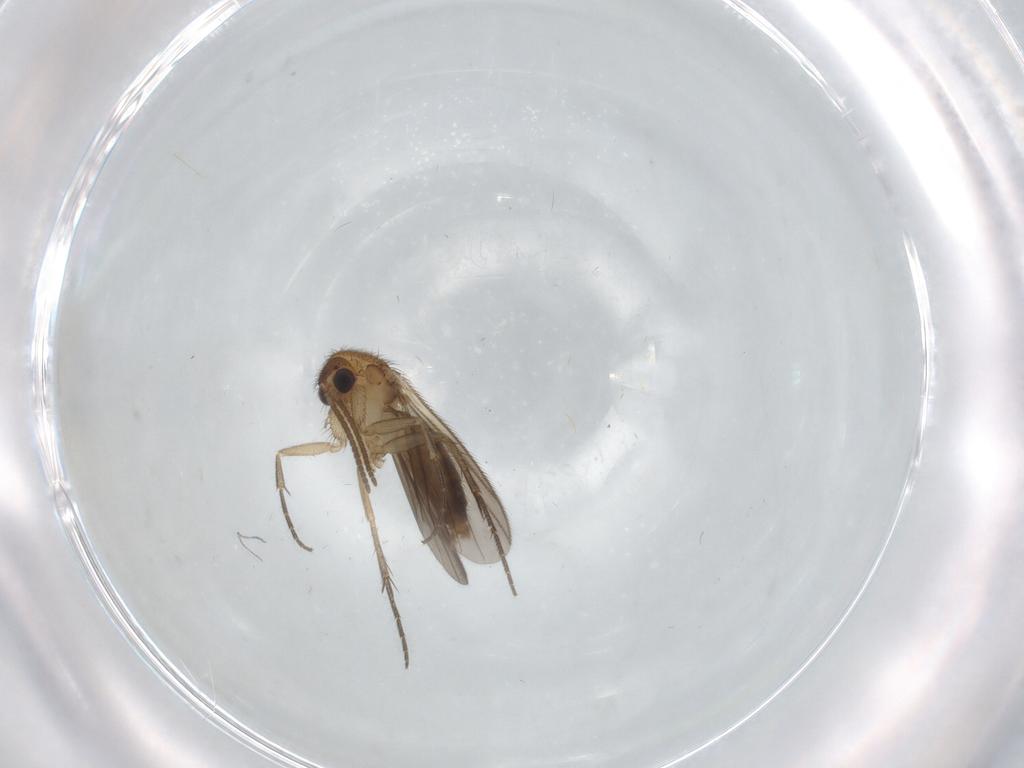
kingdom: Animalia
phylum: Arthropoda
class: Insecta
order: Diptera
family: Mycetophilidae
